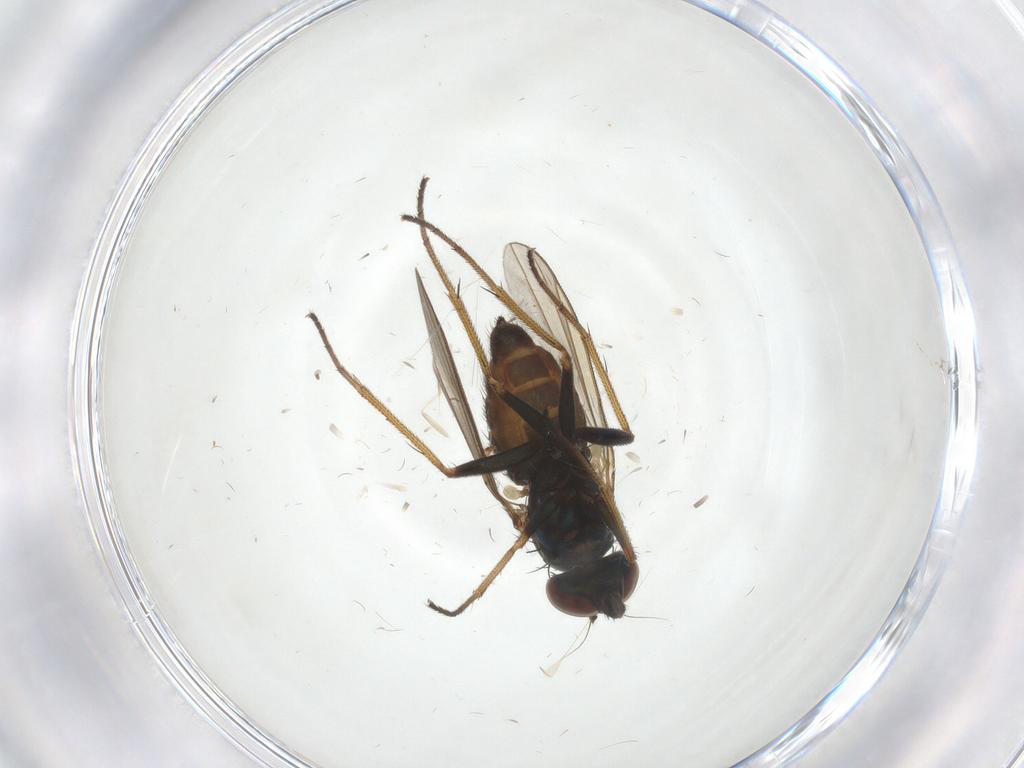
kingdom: Animalia
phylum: Arthropoda
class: Insecta
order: Diptera
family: Dolichopodidae
